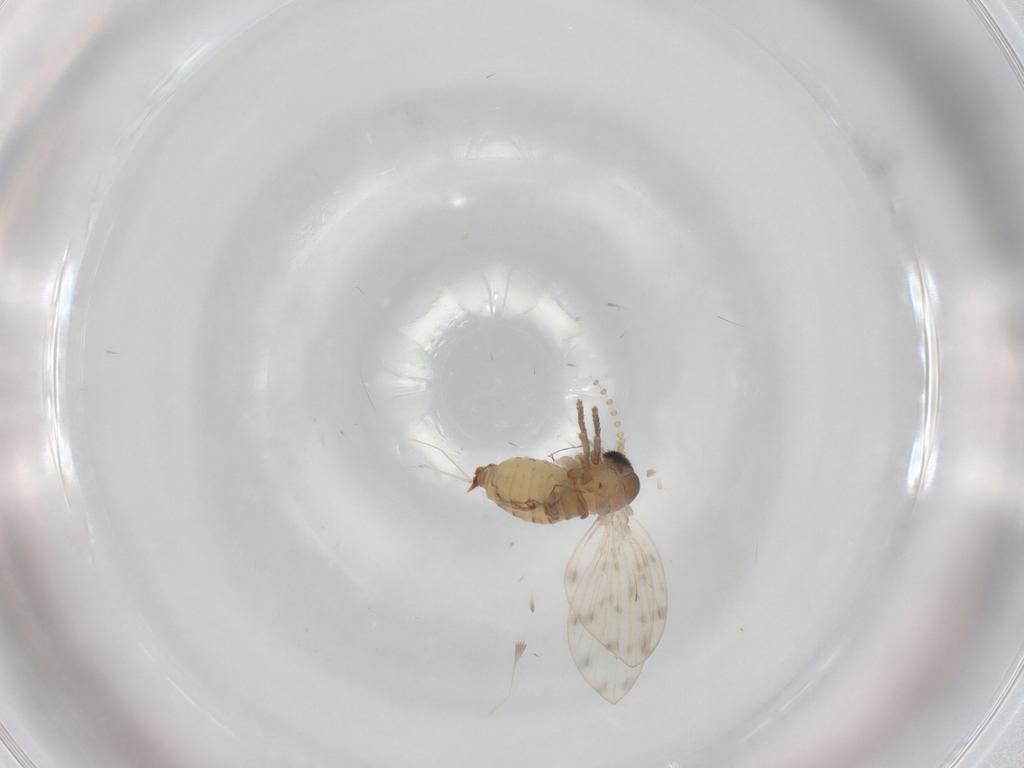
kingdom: Animalia
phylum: Arthropoda
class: Insecta
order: Diptera
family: Psychodidae
